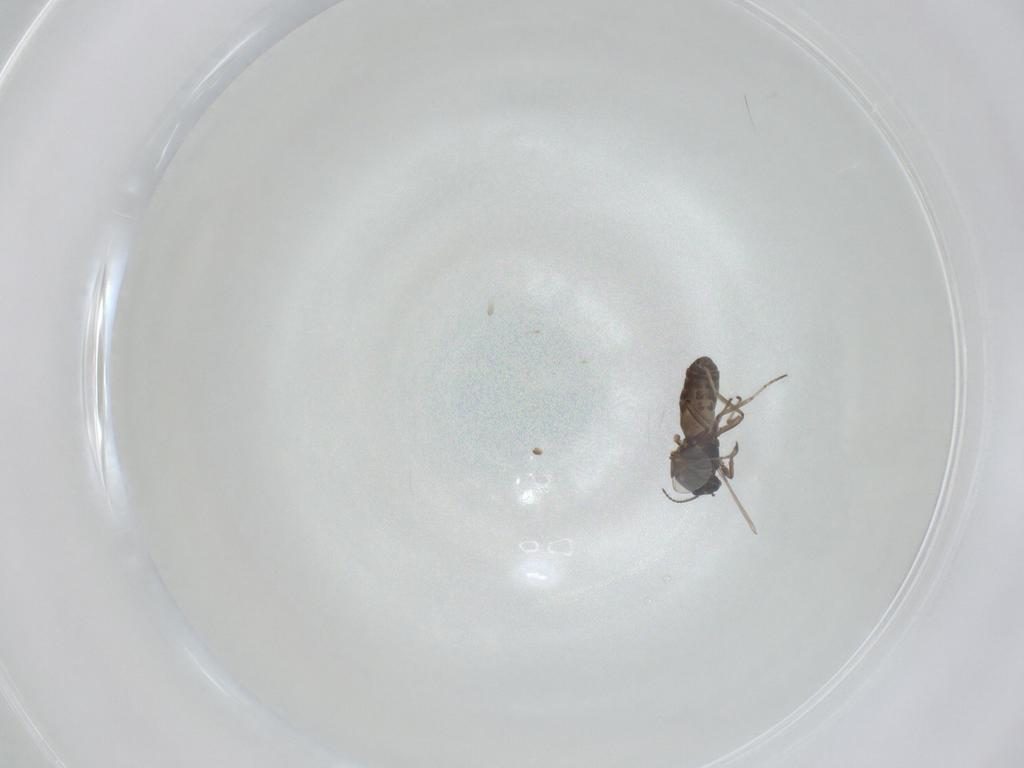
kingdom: Animalia
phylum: Arthropoda
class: Insecta
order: Diptera
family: Ceratopogonidae
